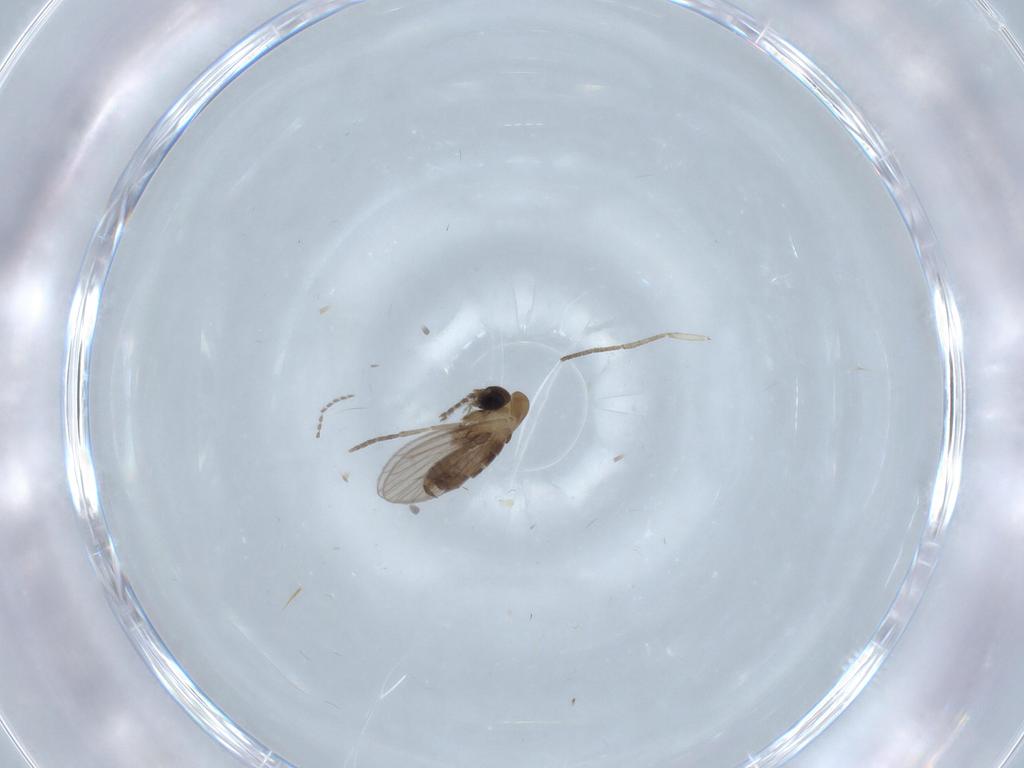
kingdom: Animalia
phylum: Arthropoda
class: Insecta
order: Diptera
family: Psychodidae
